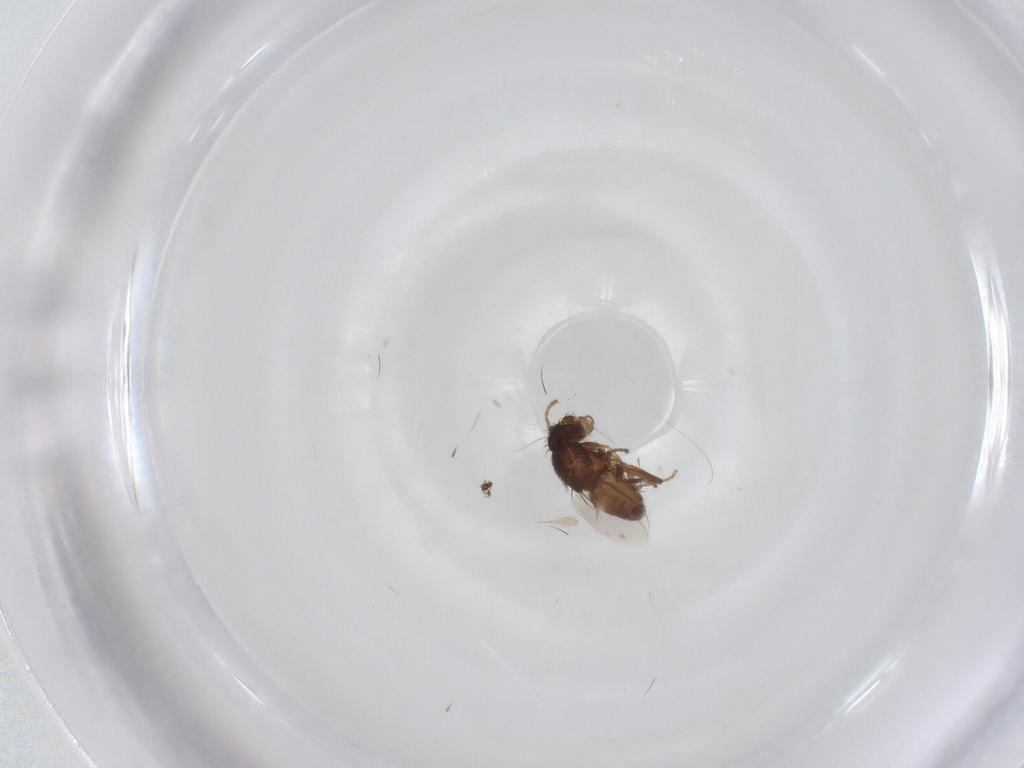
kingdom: Animalia
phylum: Arthropoda
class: Insecta
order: Diptera
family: Sphaeroceridae
